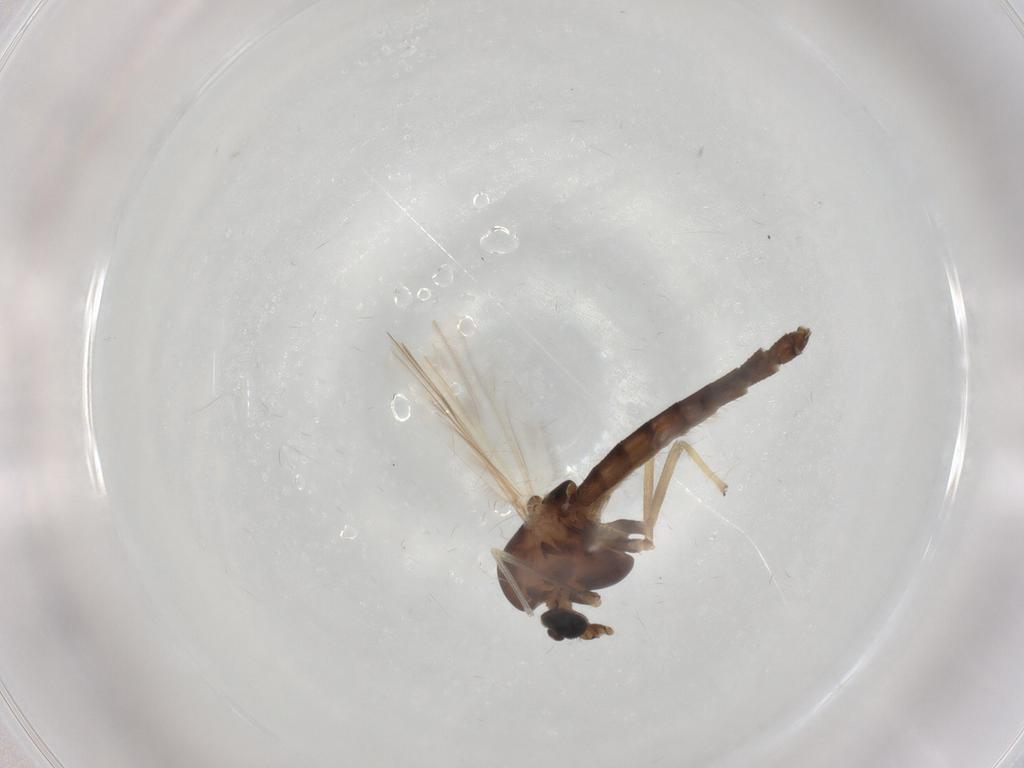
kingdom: Animalia
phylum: Arthropoda
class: Insecta
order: Diptera
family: Chironomidae
